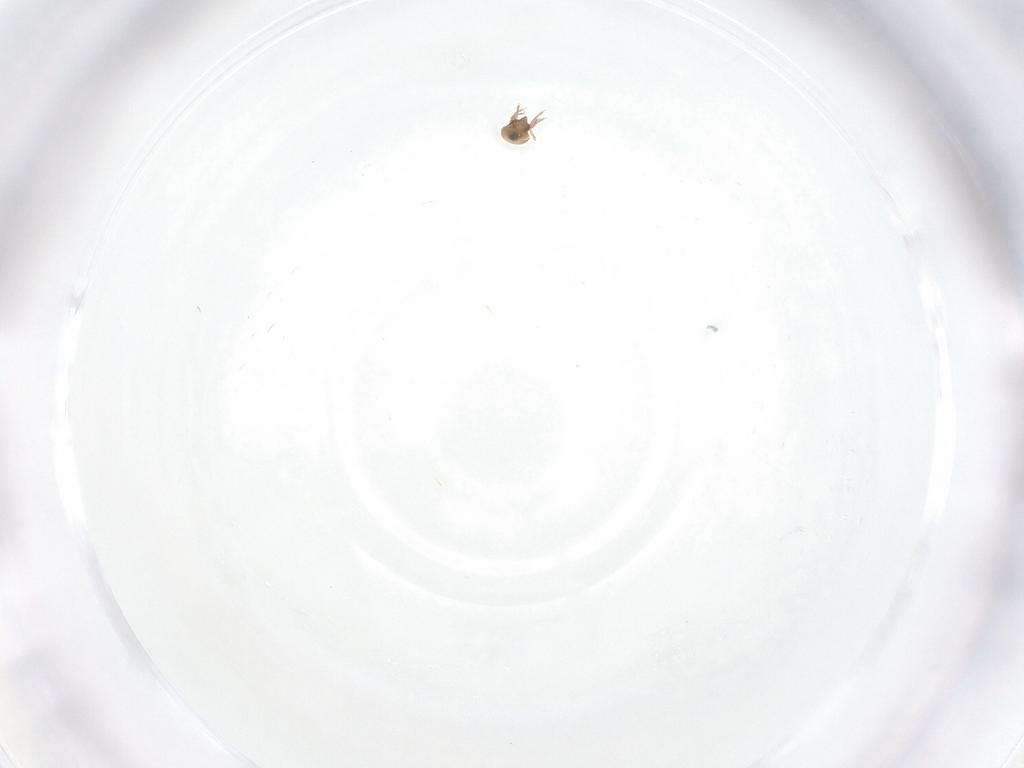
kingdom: Animalia
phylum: Arthropoda
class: Arachnida
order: Sarcoptiformes
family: Scheloribatidae
